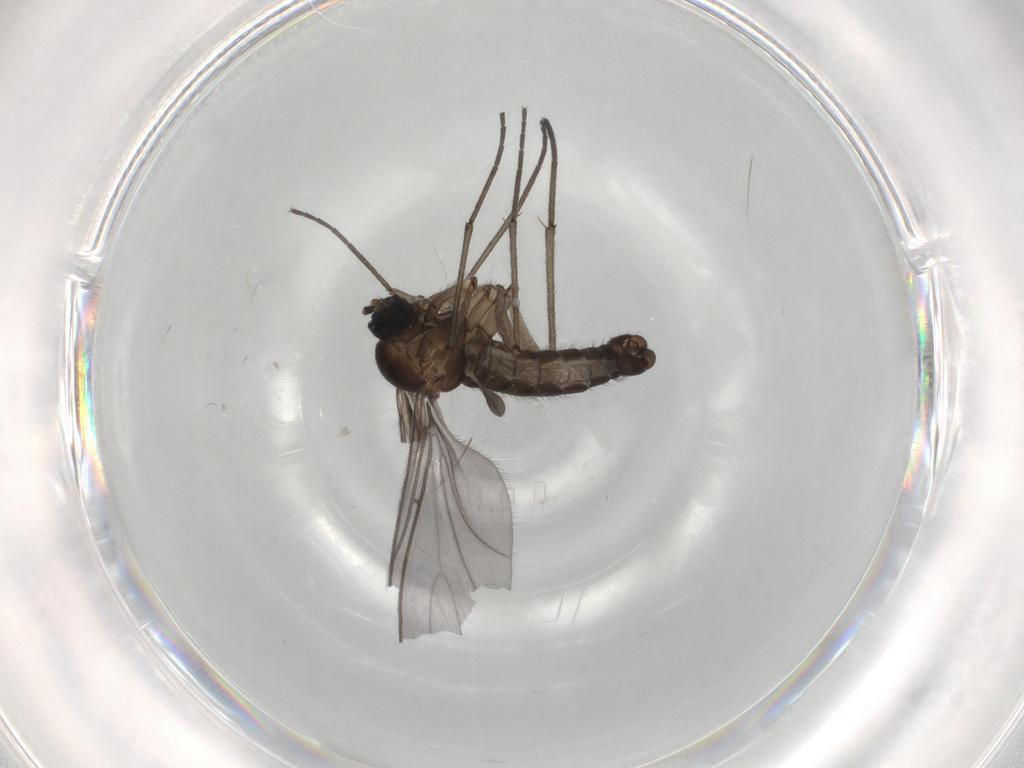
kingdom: Animalia
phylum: Arthropoda
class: Insecta
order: Diptera
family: Sciaridae
